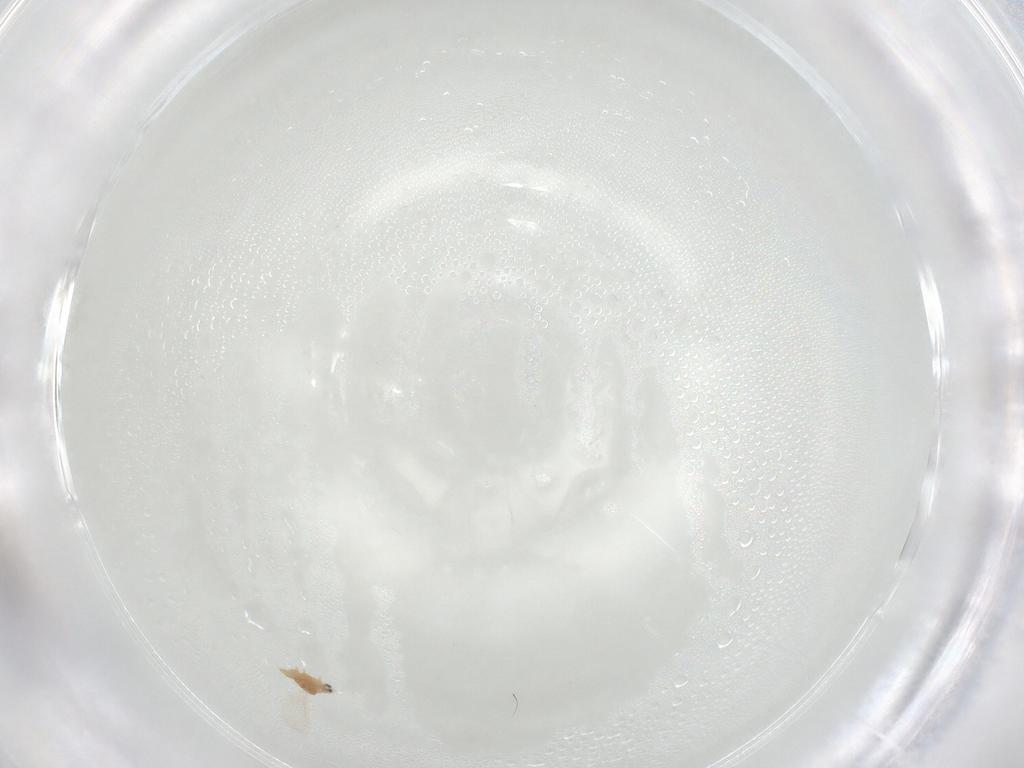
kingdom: Animalia
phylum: Arthropoda
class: Insecta
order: Hemiptera
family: Aleyrodidae
